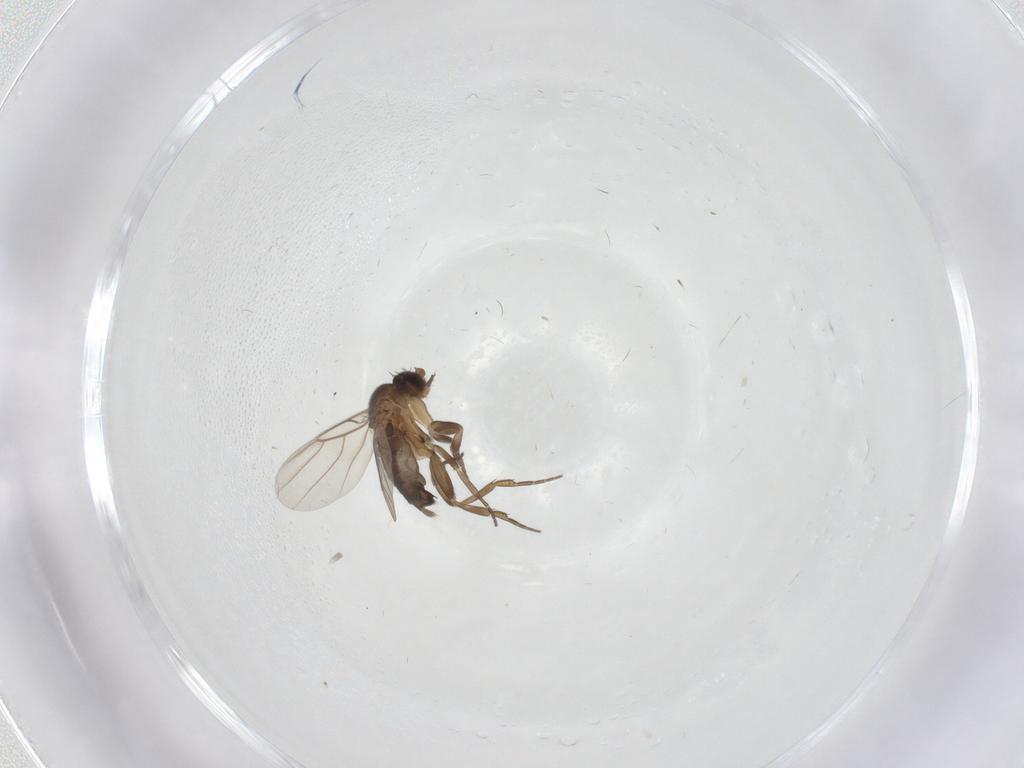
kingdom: Animalia
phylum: Arthropoda
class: Insecta
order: Diptera
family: Phoridae
